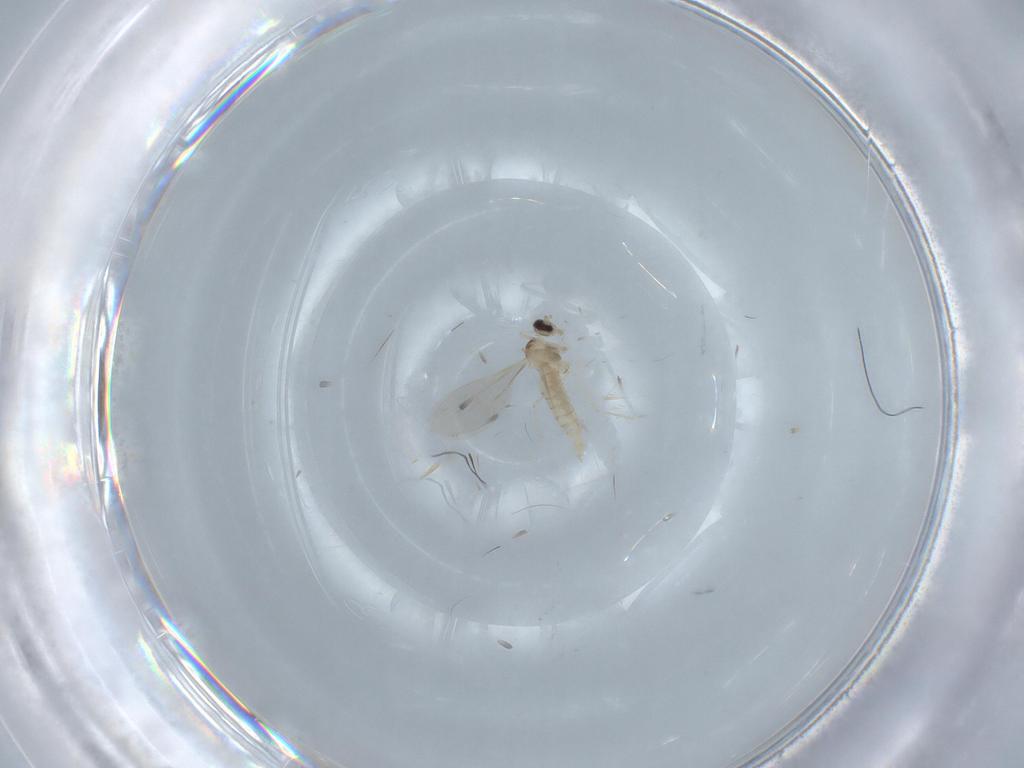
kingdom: Animalia
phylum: Arthropoda
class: Insecta
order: Diptera
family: Cecidomyiidae
